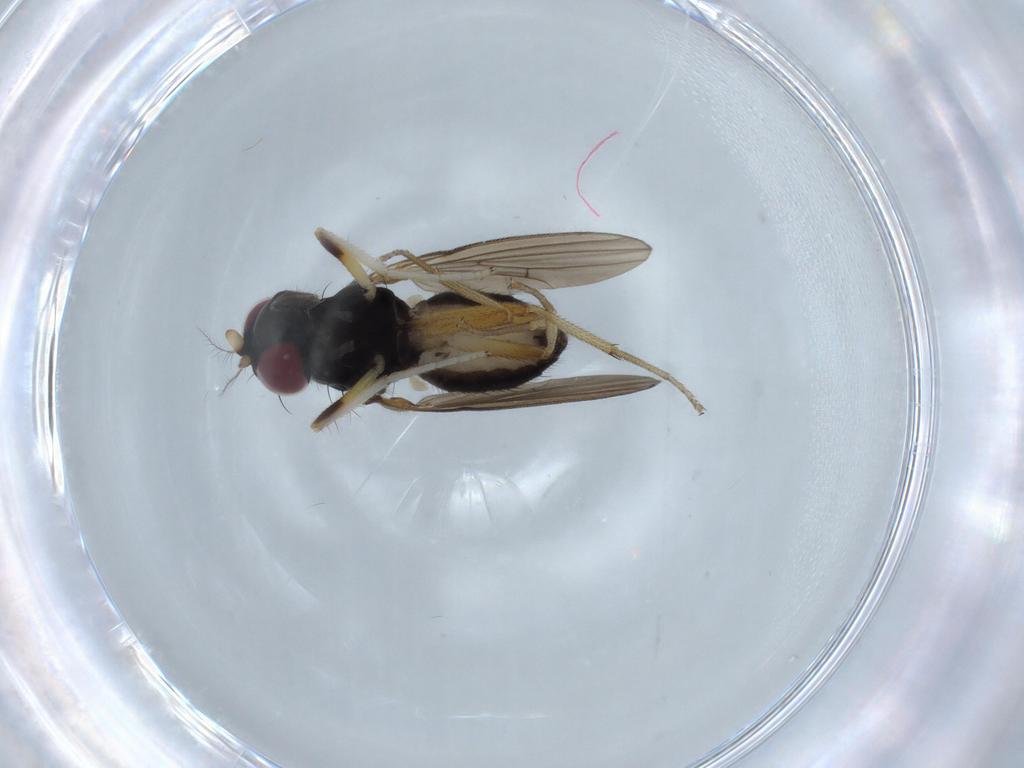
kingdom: Animalia
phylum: Arthropoda
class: Insecta
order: Diptera
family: Lauxaniidae
